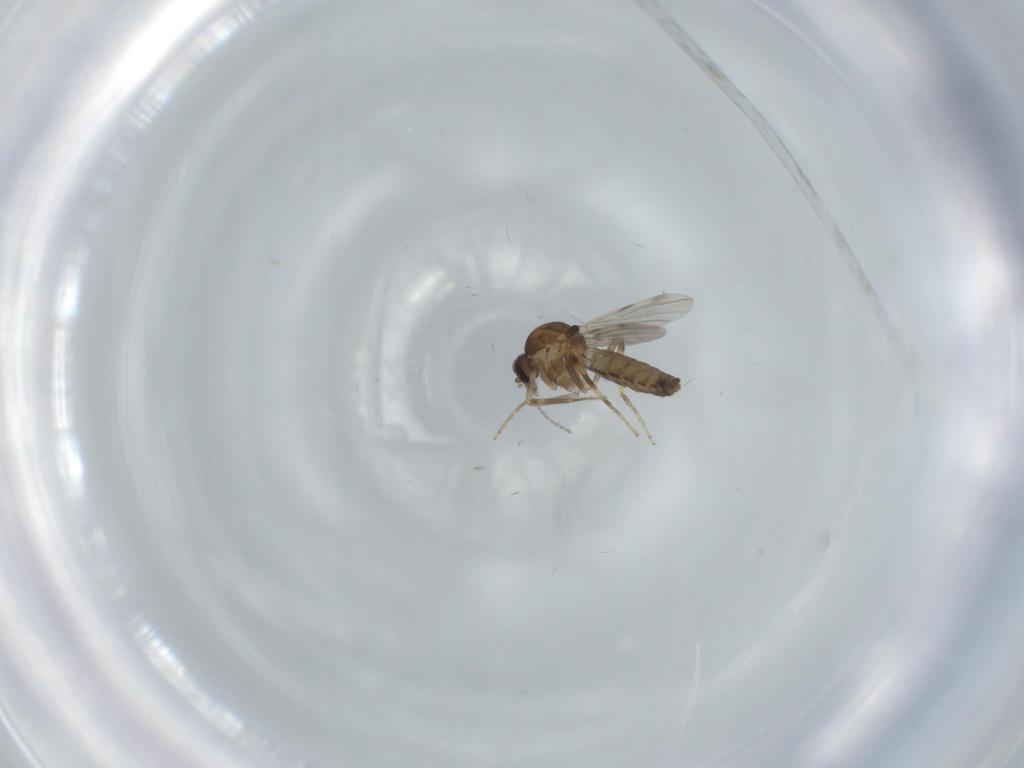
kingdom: Animalia
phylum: Arthropoda
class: Insecta
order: Diptera
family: Ceratopogonidae
